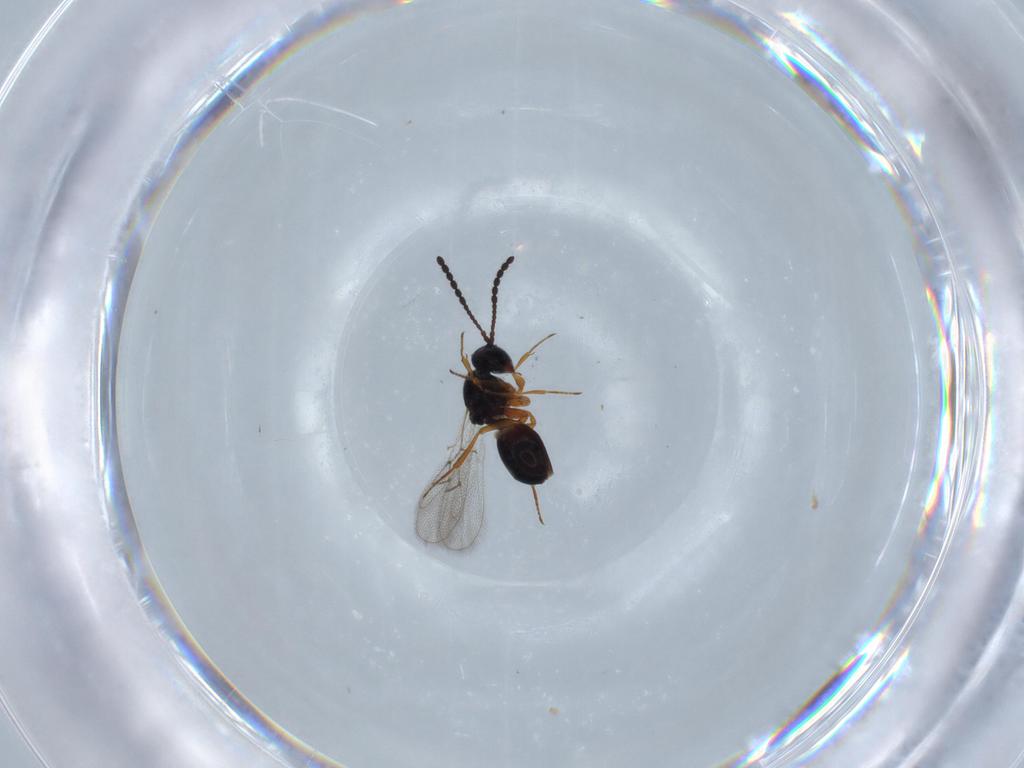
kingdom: Animalia
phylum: Arthropoda
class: Insecta
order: Hymenoptera
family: Figitidae
